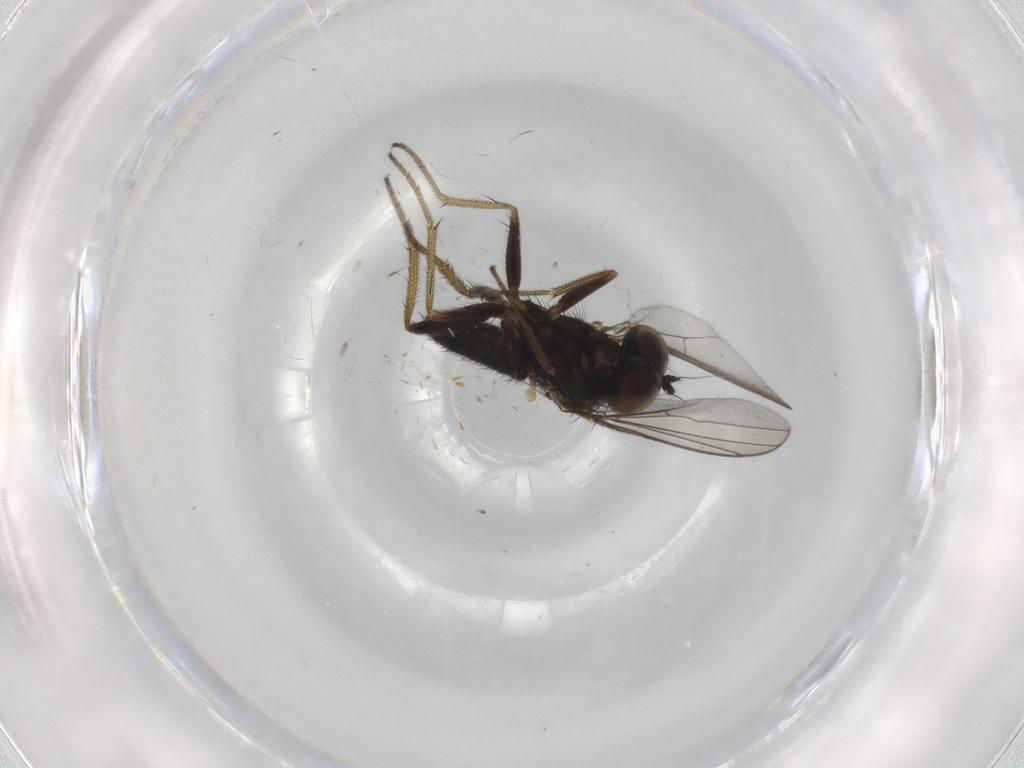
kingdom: Animalia
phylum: Arthropoda
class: Insecta
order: Diptera
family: Dolichopodidae
